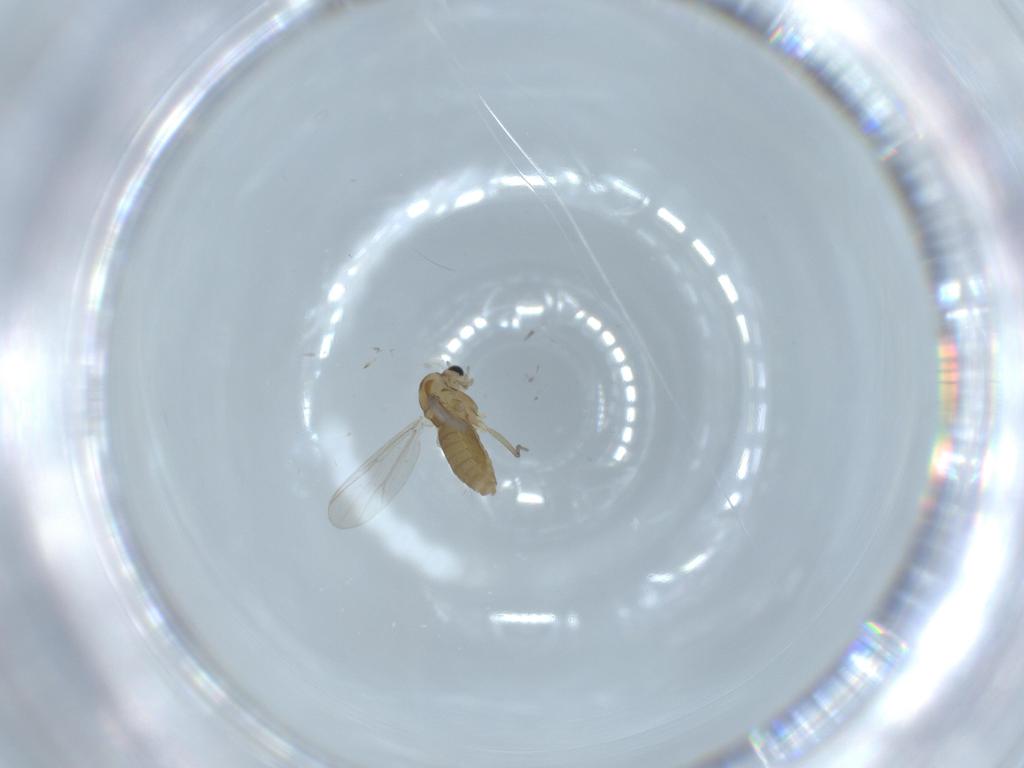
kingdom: Animalia
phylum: Arthropoda
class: Insecta
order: Diptera
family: Chironomidae
